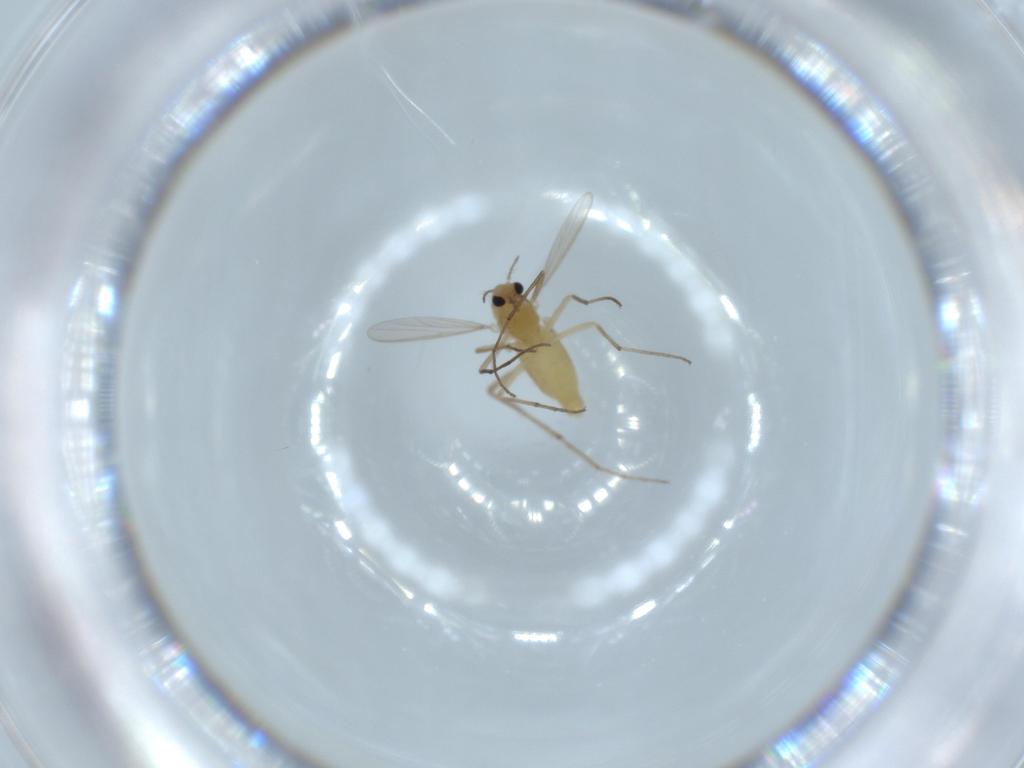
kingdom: Animalia
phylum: Arthropoda
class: Insecta
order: Diptera
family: Chironomidae
